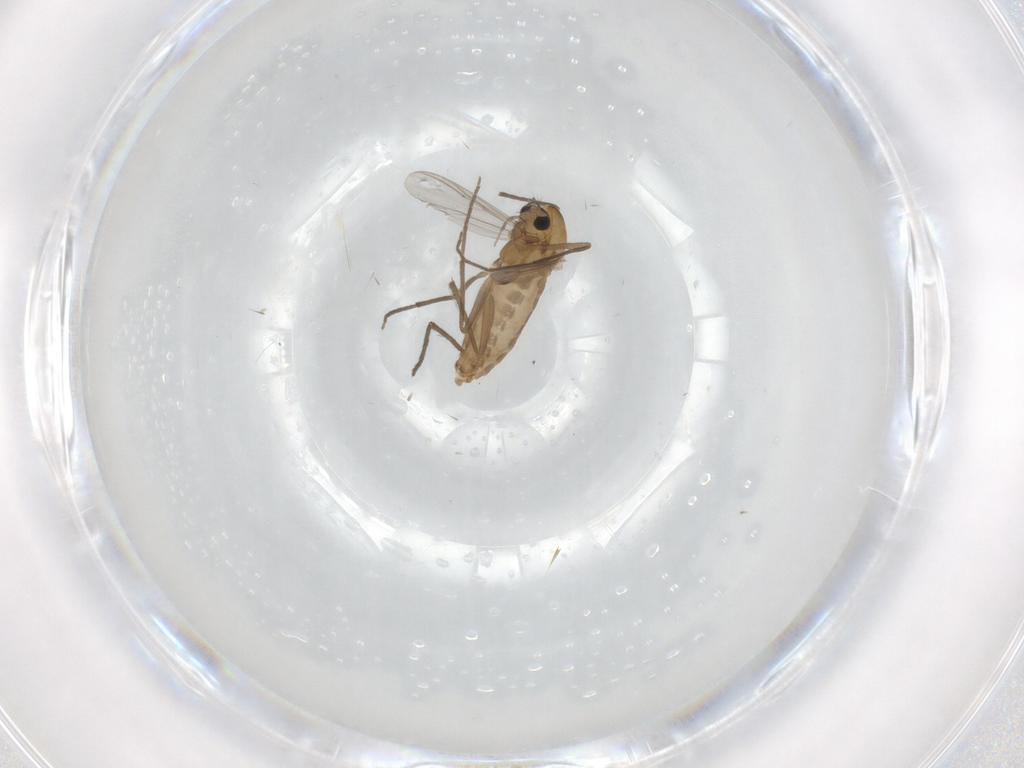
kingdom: Animalia
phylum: Arthropoda
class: Insecta
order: Diptera
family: Chironomidae
